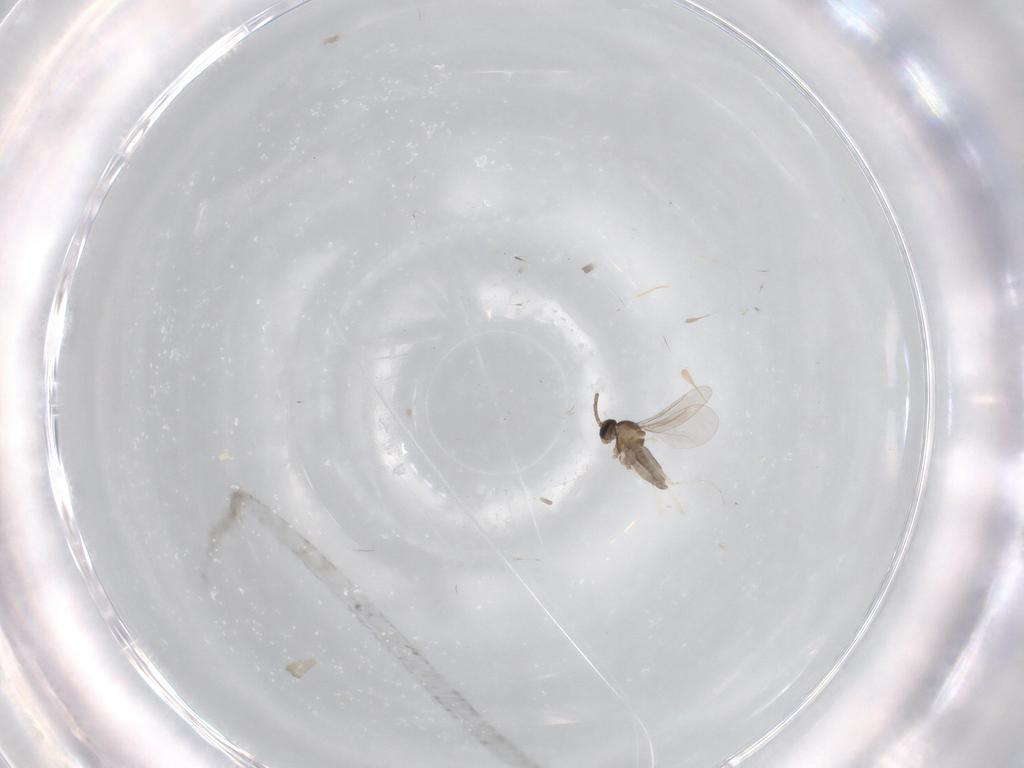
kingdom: Animalia
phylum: Arthropoda
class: Insecta
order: Diptera
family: Cecidomyiidae
